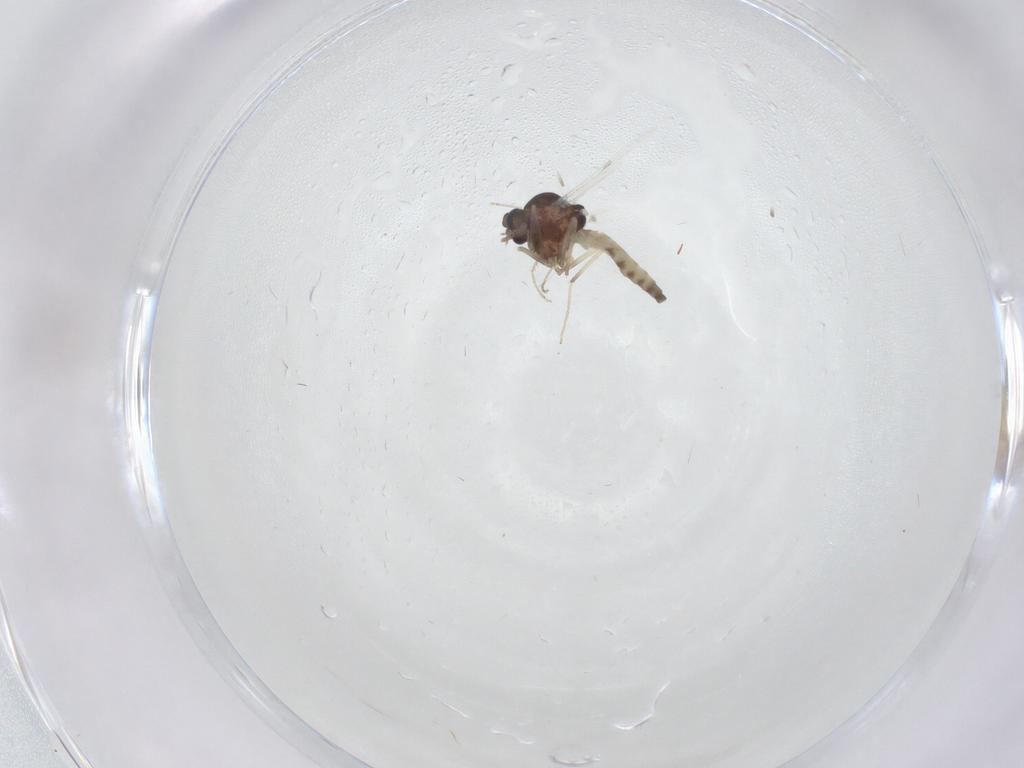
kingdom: Animalia
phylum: Arthropoda
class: Insecta
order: Diptera
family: Ceratopogonidae
